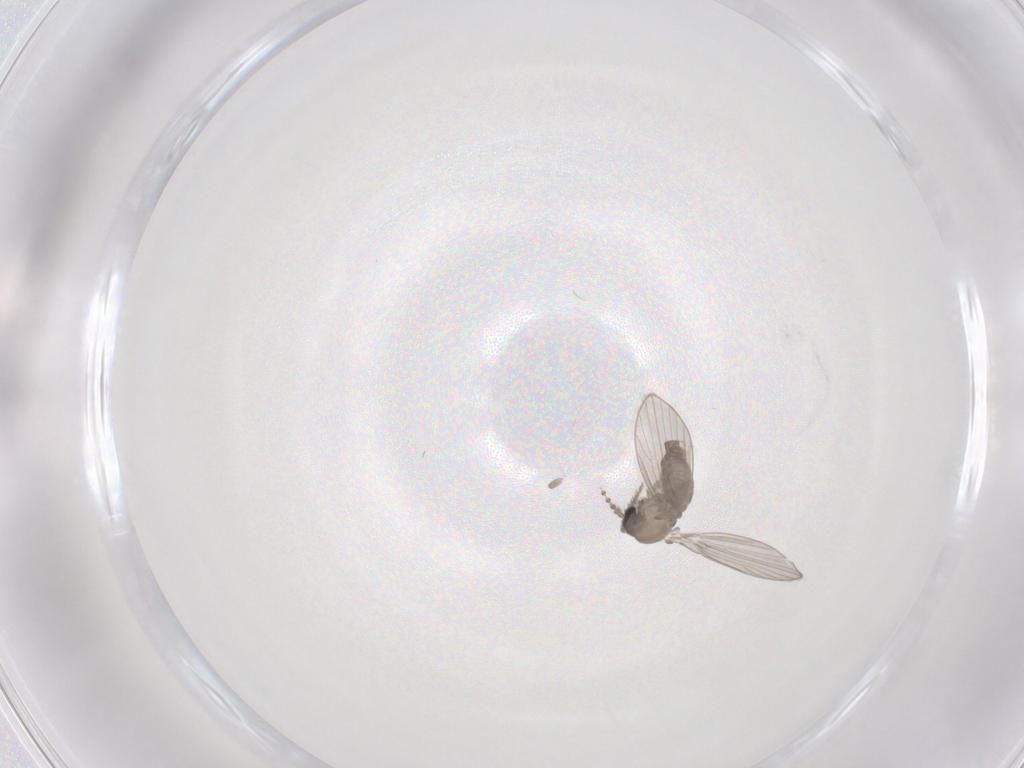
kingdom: Animalia
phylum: Arthropoda
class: Insecta
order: Diptera
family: Psychodidae
